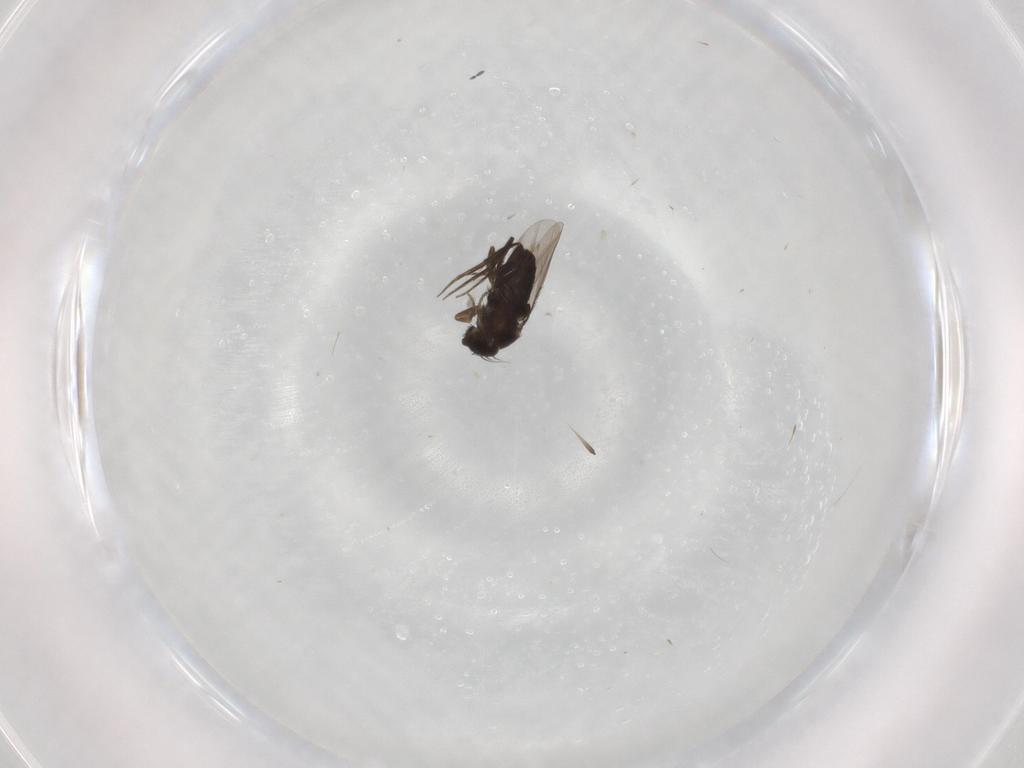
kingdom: Animalia
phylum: Arthropoda
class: Insecta
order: Diptera
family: Phoridae
